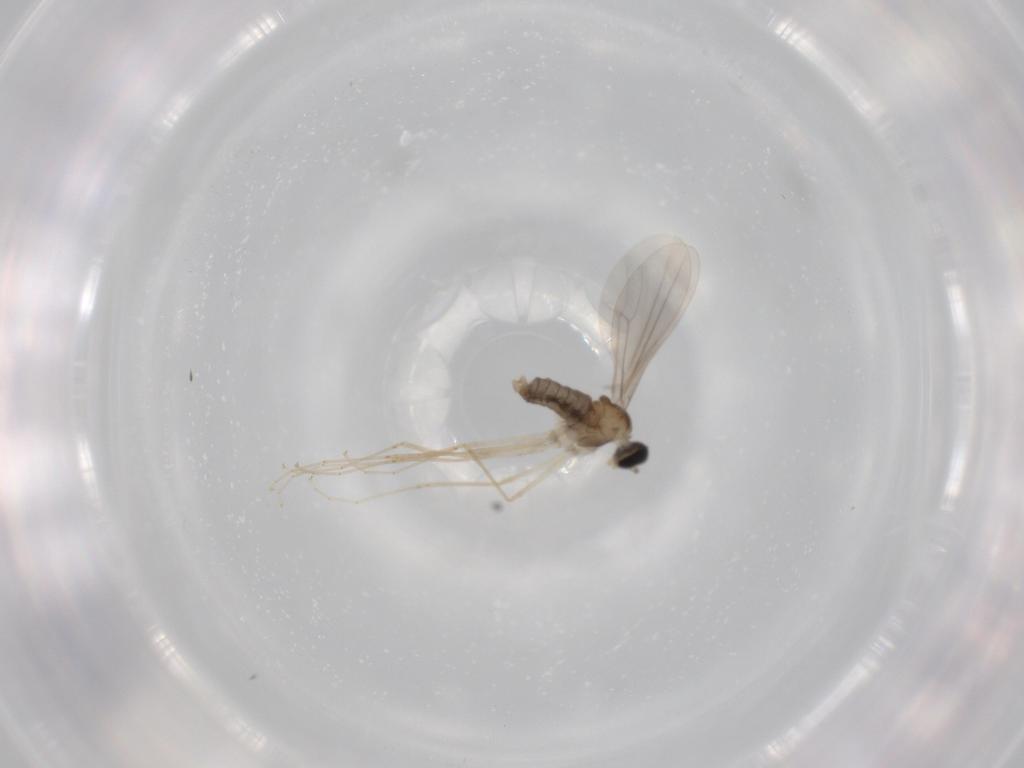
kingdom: Animalia
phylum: Arthropoda
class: Insecta
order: Diptera
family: Cecidomyiidae
